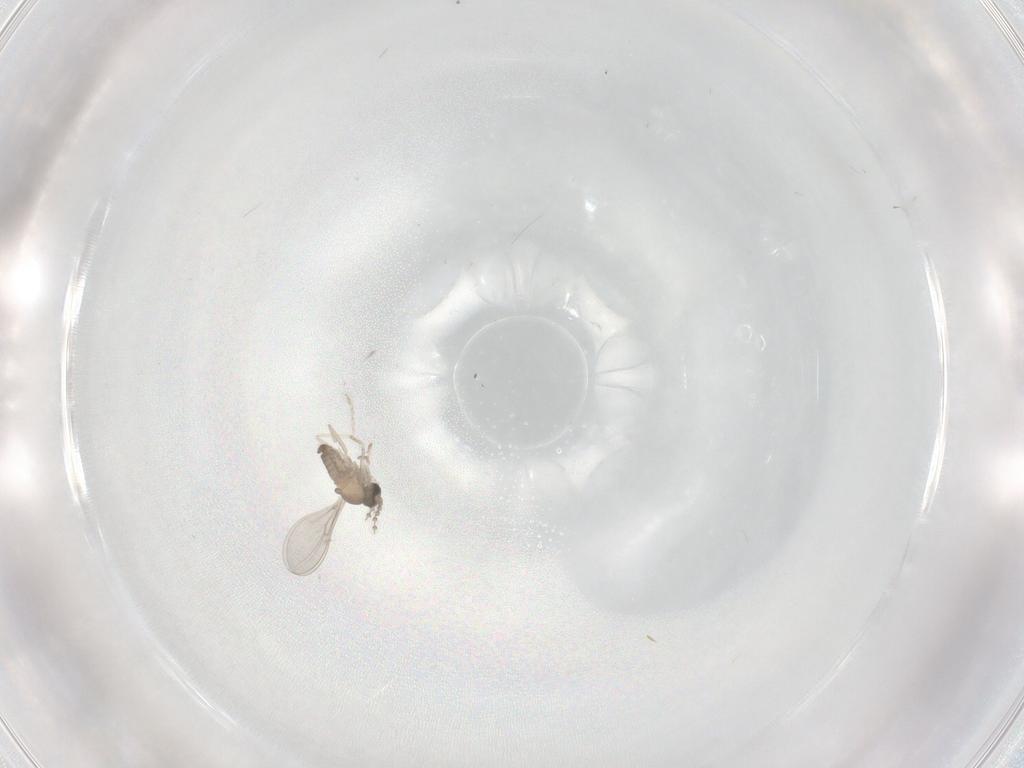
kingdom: Animalia
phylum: Arthropoda
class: Insecta
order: Diptera
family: Cecidomyiidae
